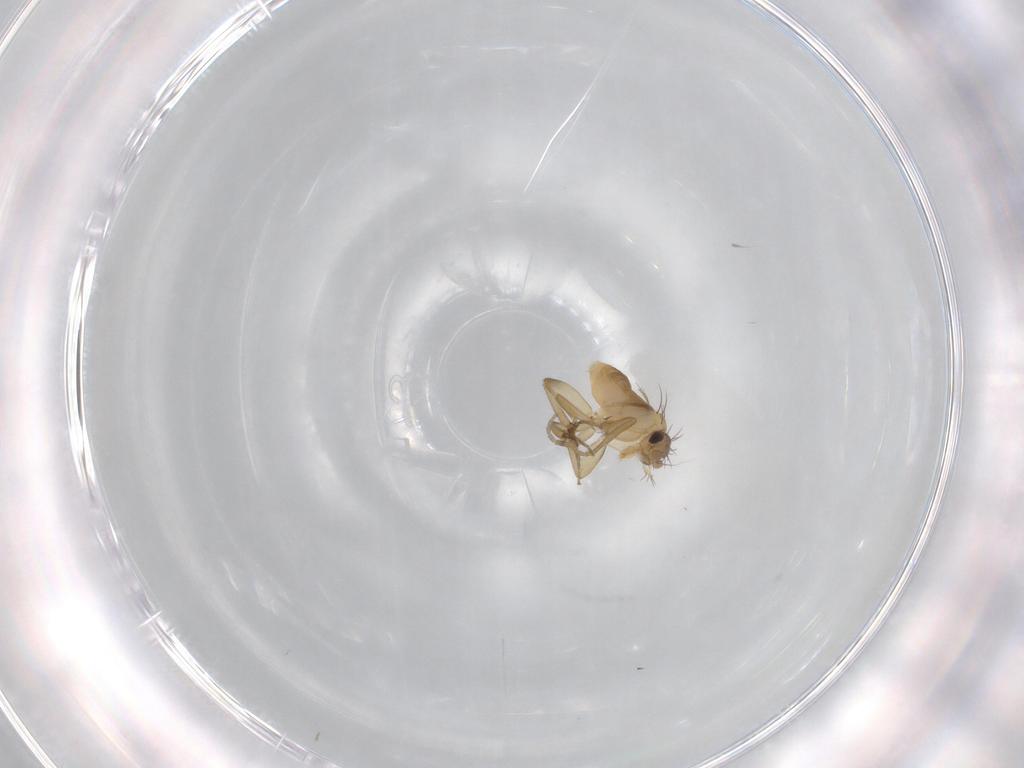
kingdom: Animalia
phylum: Arthropoda
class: Insecta
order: Diptera
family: Phoridae
